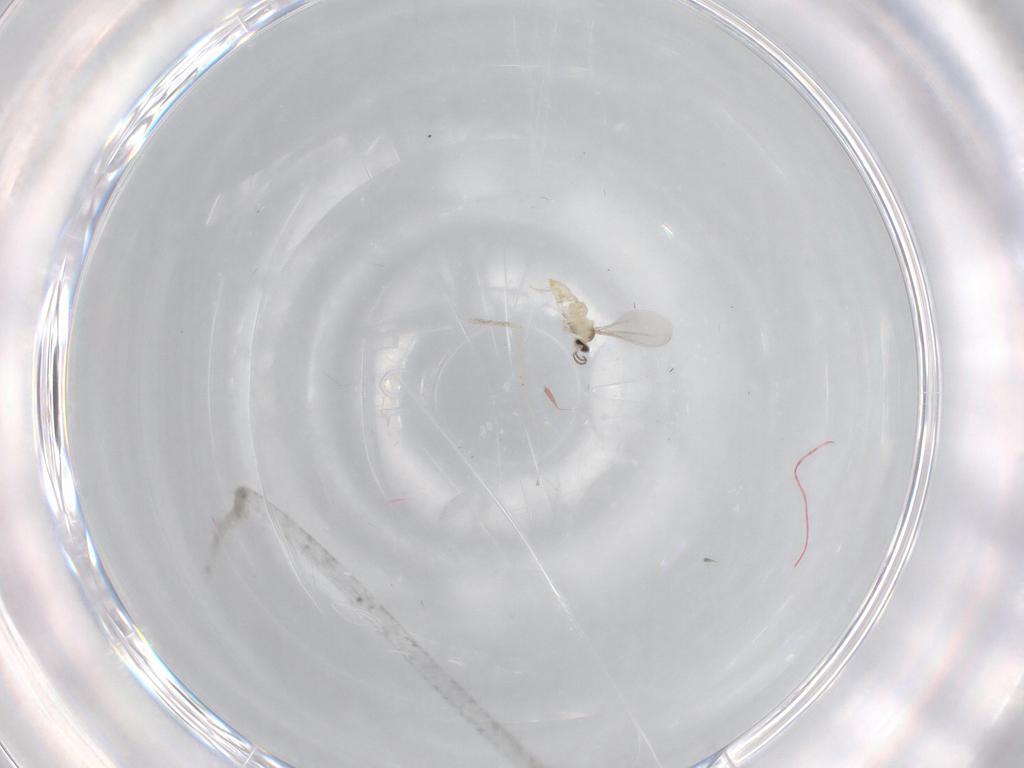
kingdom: Animalia
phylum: Arthropoda
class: Insecta
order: Diptera
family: Cecidomyiidae
